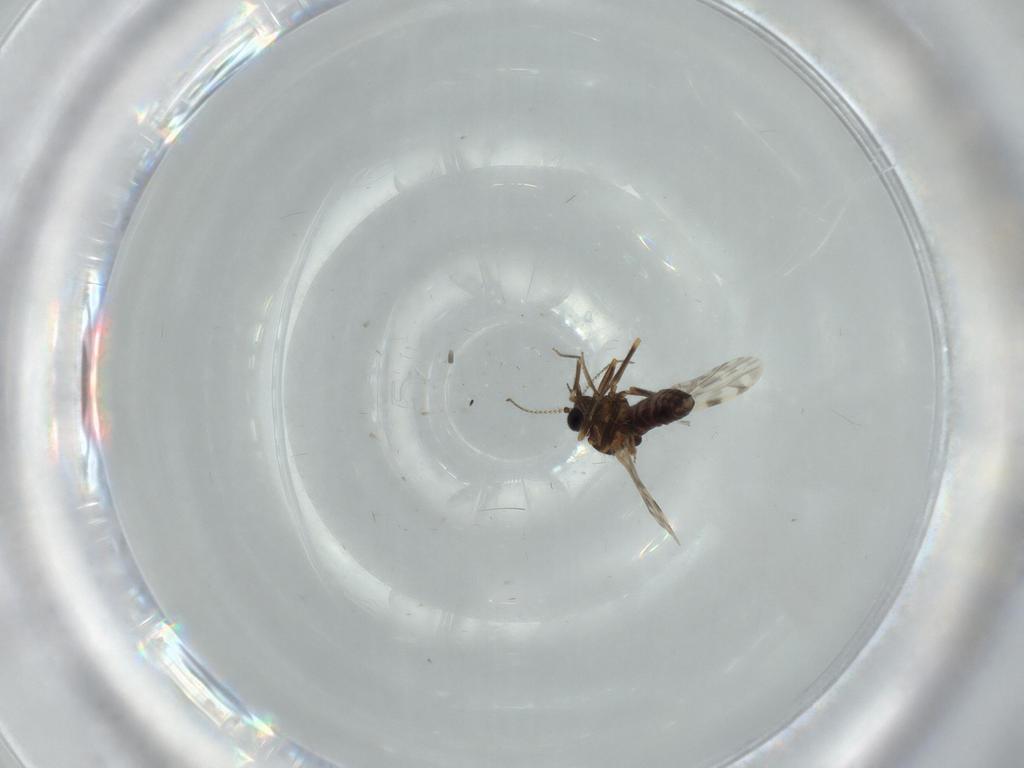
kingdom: Animalia
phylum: Arthropoda
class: Insecta
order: Diptera
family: Ceratopogonidae
